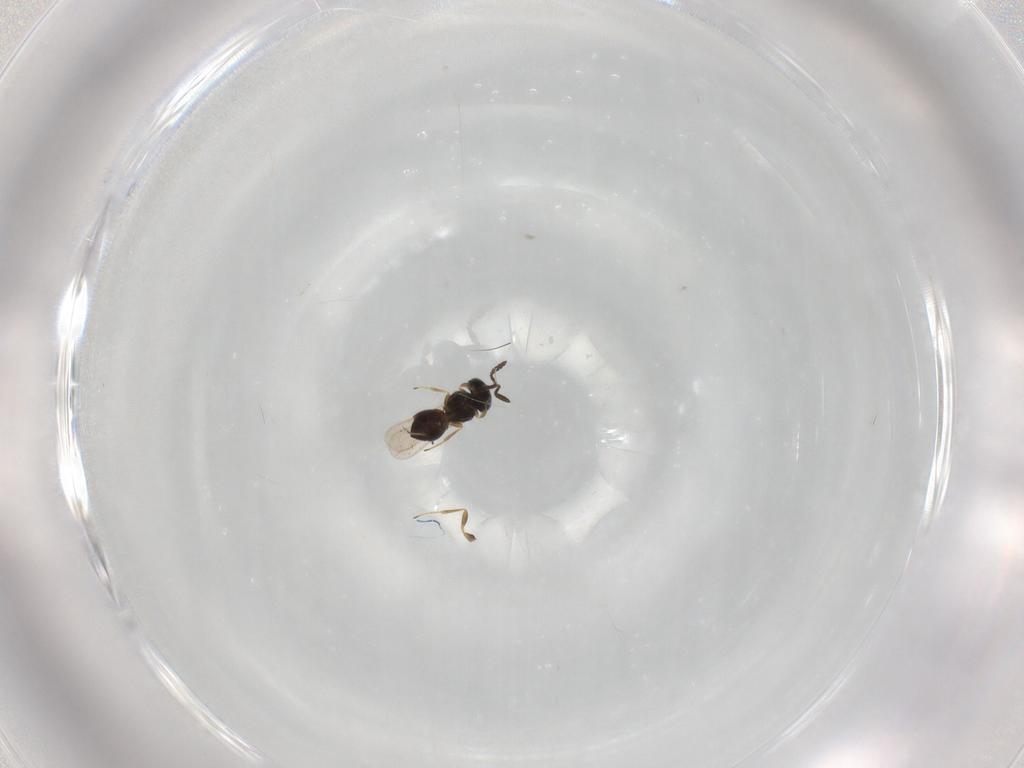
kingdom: Animalia
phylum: Arthropoda
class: Insecta
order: Hymenoptera
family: Scelionidae
